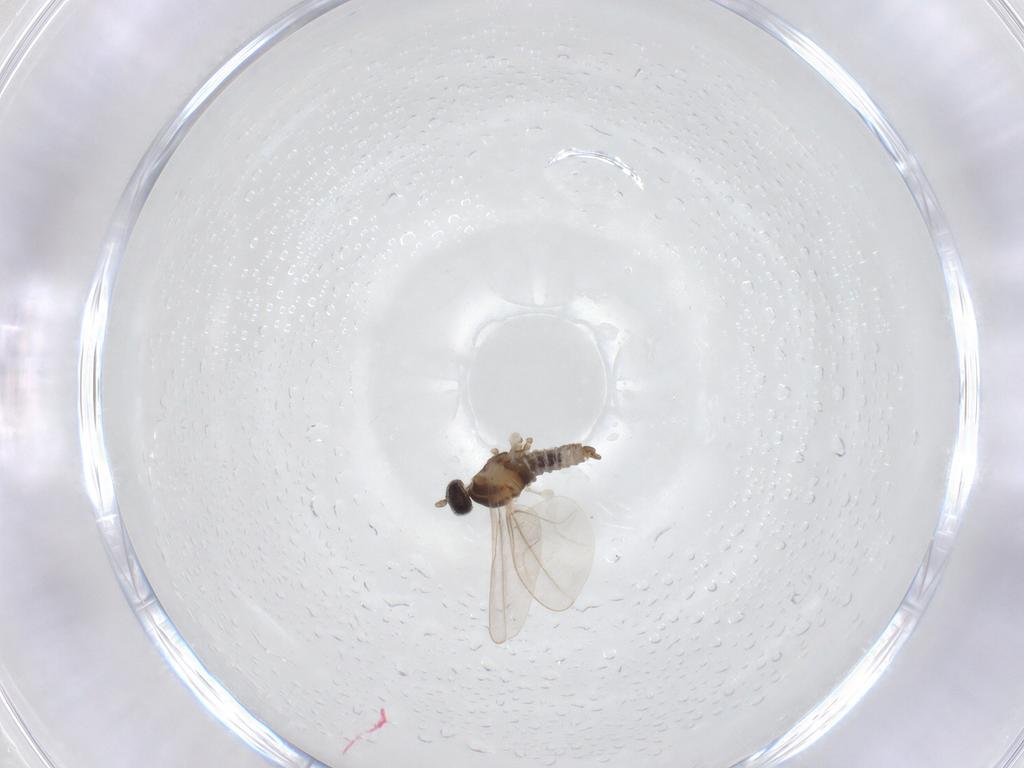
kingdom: Animalia
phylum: Arthropoda
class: Insecta
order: Diptera
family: Cecidomyiidae
